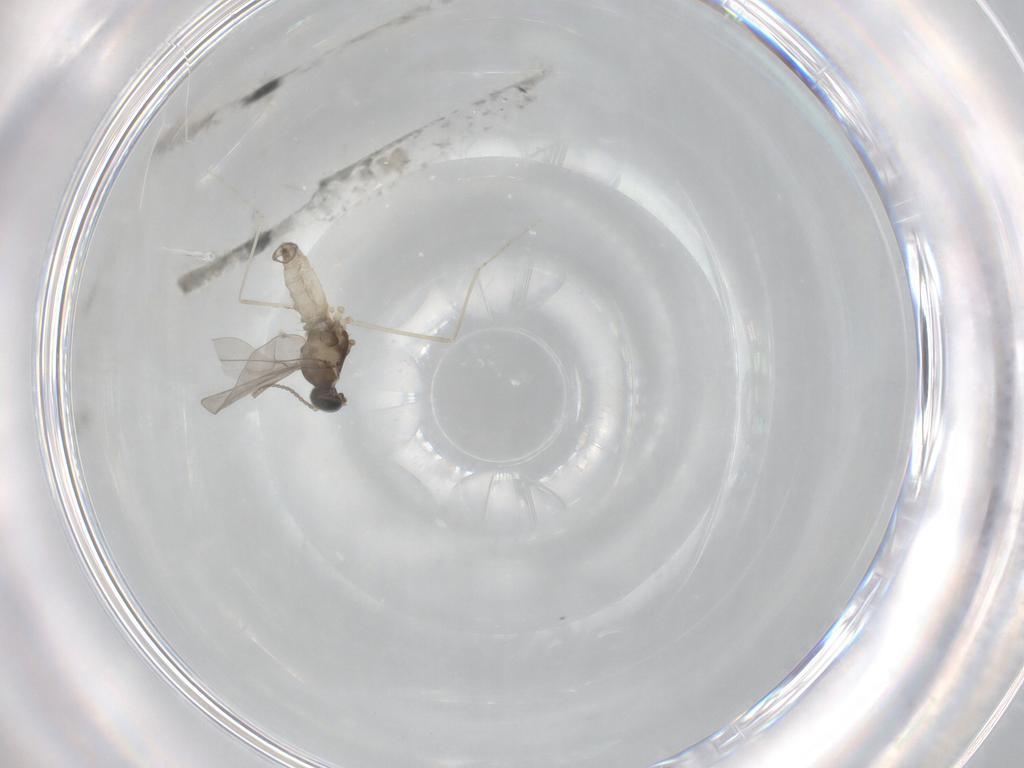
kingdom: Animalia
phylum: Arthropoda
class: Insecta
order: Diptera
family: Cecidomyiidae
